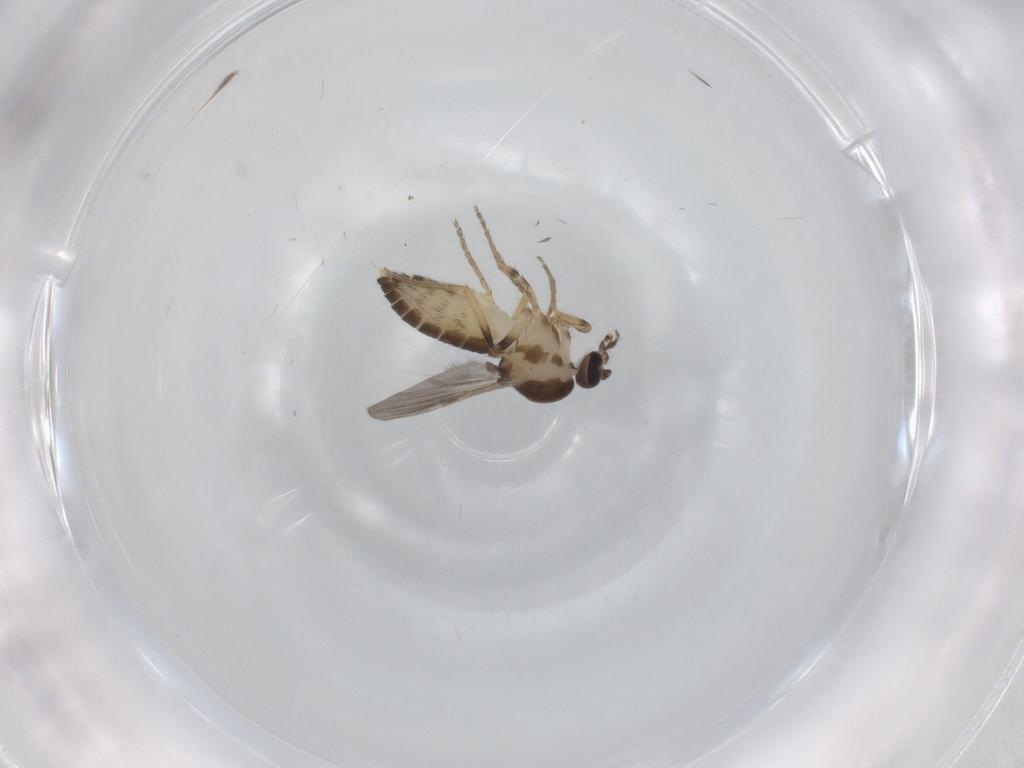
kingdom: Animalia
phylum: Arthropoda
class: Insecta
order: Diptera
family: Ceratopogonidae
